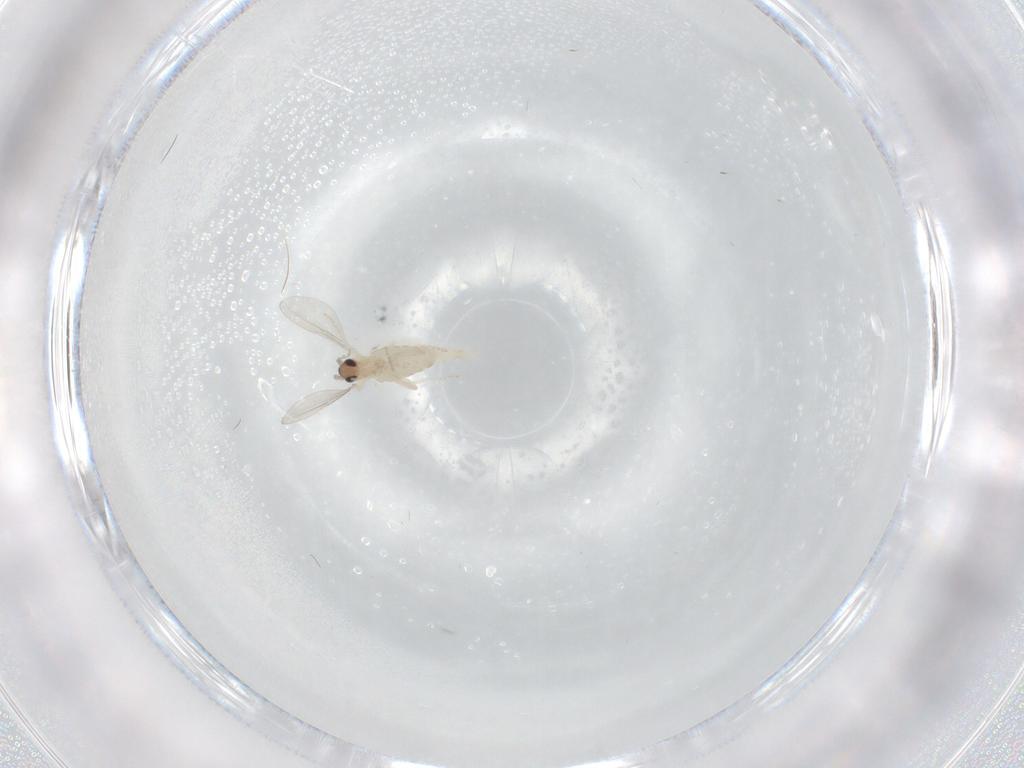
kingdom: Animalia
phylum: Arthropoda
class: Insecta
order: Diptera
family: Cecidomyiidae
